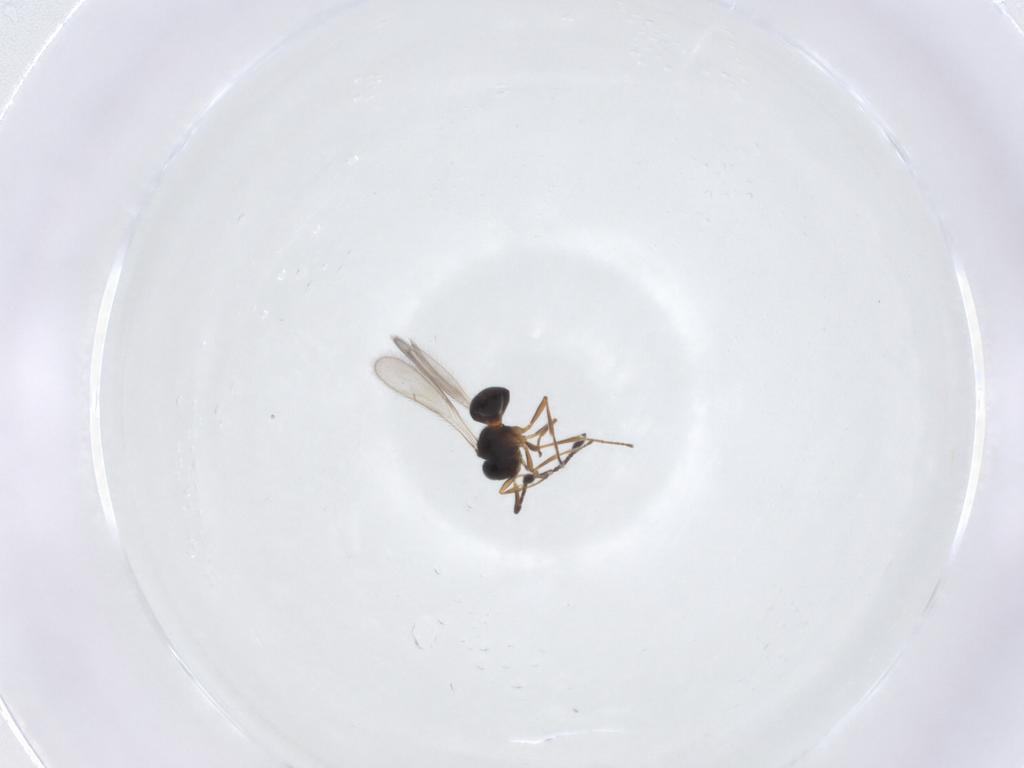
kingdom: Animalia
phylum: Arthropoda
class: Insecta
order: Hymenoptera
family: Scelionidae
